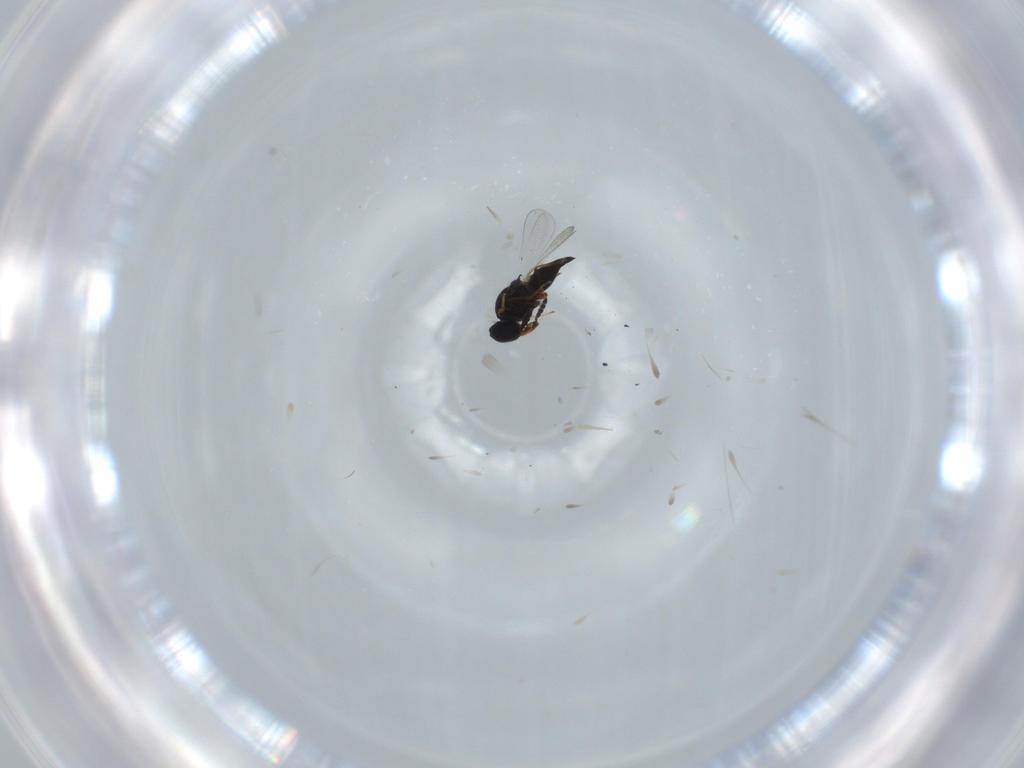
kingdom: Animalia
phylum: Arthropoda
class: Insecta
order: Hymenoptera
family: Platygastridae
